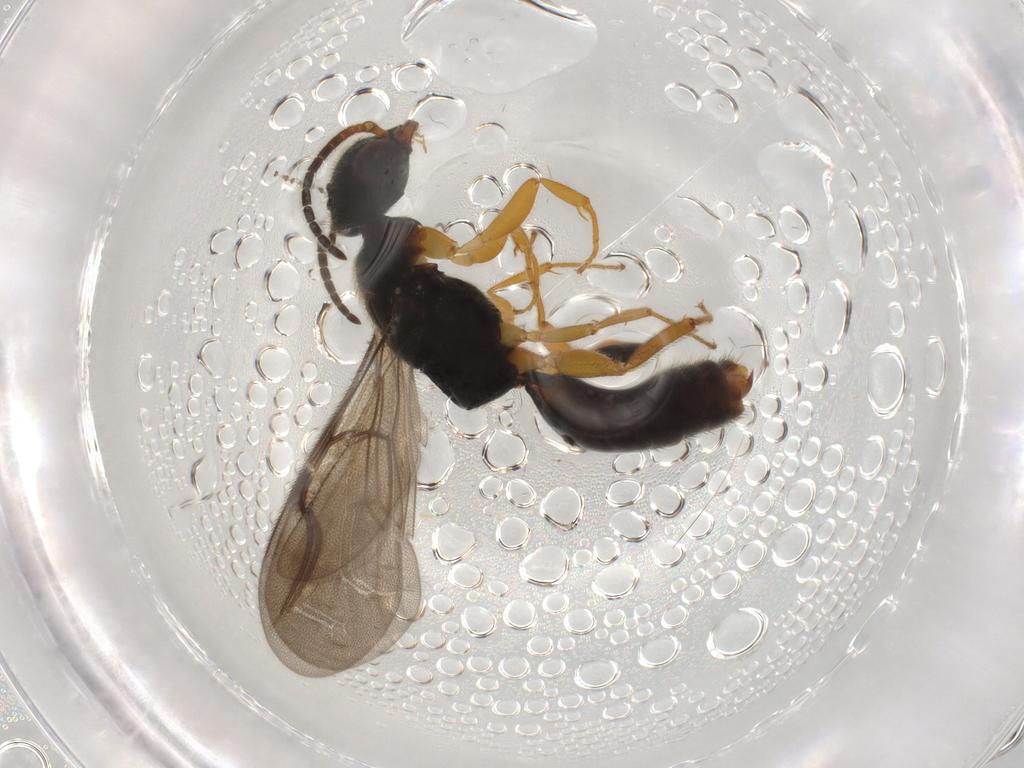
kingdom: Animalia
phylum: Arthropoda
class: Insecta
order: Hymenoptera
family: Bethylidae
